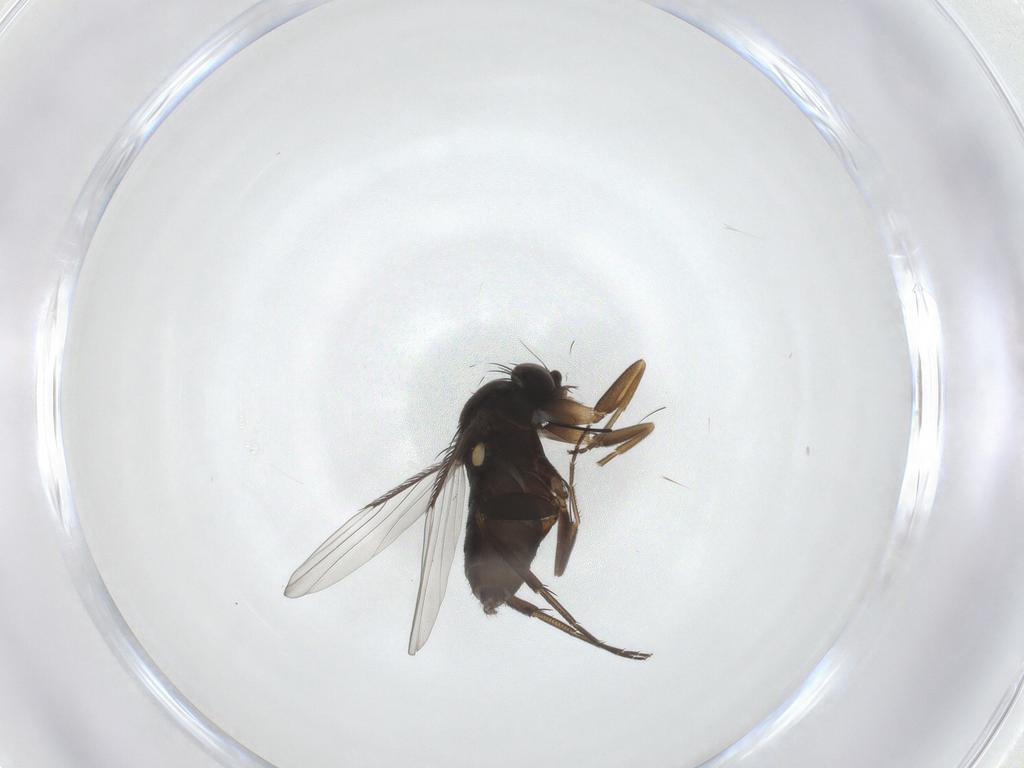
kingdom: Animalia
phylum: Arthropoda
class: Insecta
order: Diptera
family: Phoridae
